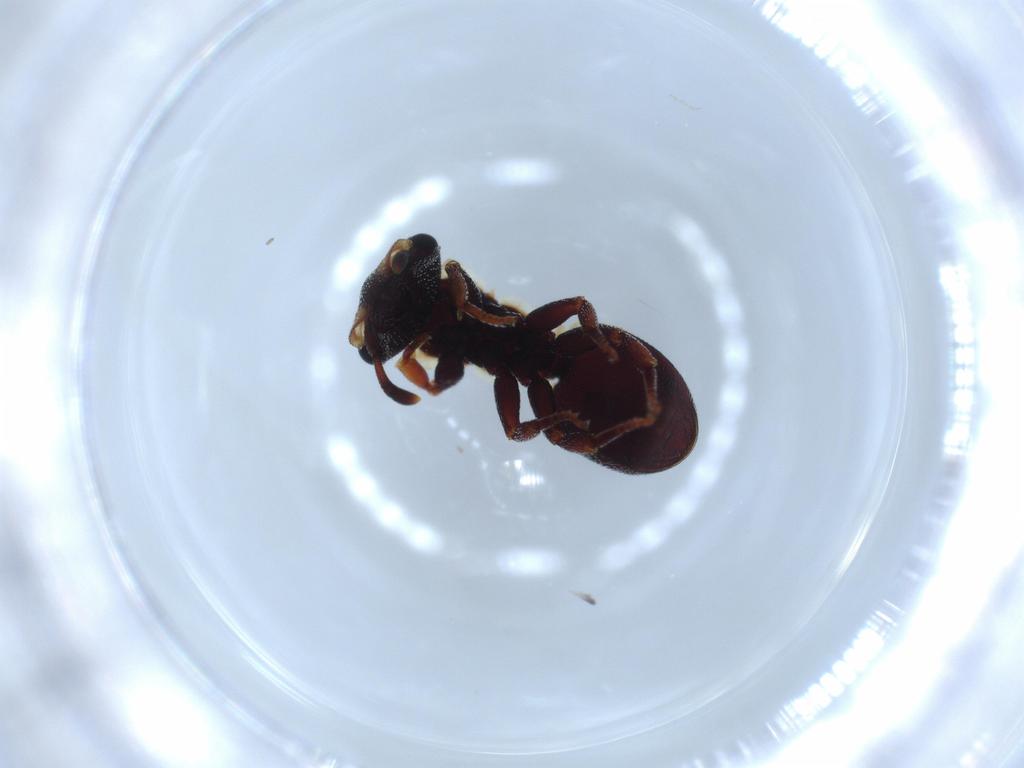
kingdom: Animalia
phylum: Arthropoda
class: Insecta
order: Hymenoptera
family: Formicidae
